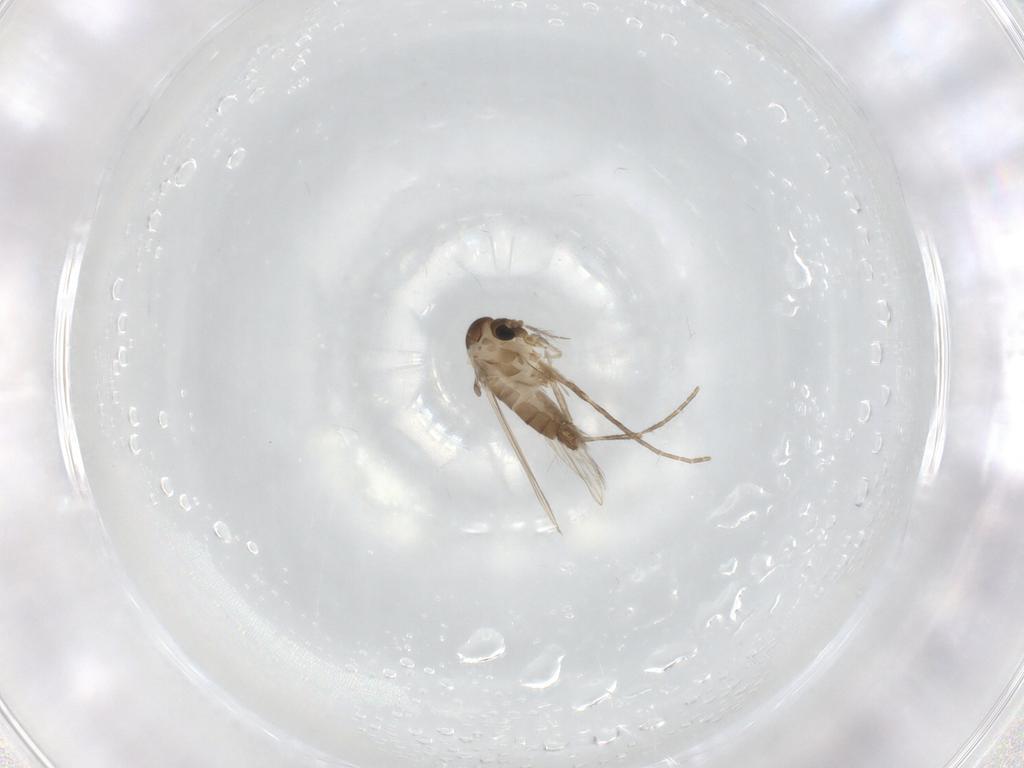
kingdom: Animalia
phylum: Arthropoda
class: Insecta
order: Diptera
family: Psychodidae
